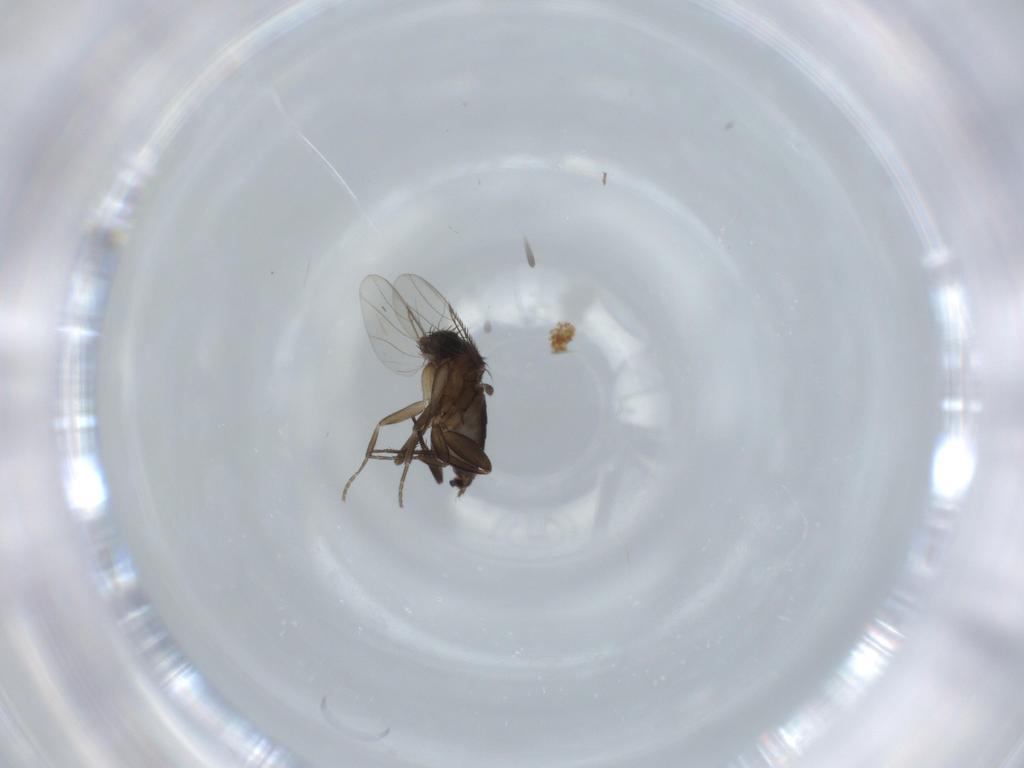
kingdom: Animalia
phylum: Arthropoda
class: Insecta
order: Diptera
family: Phoridae
